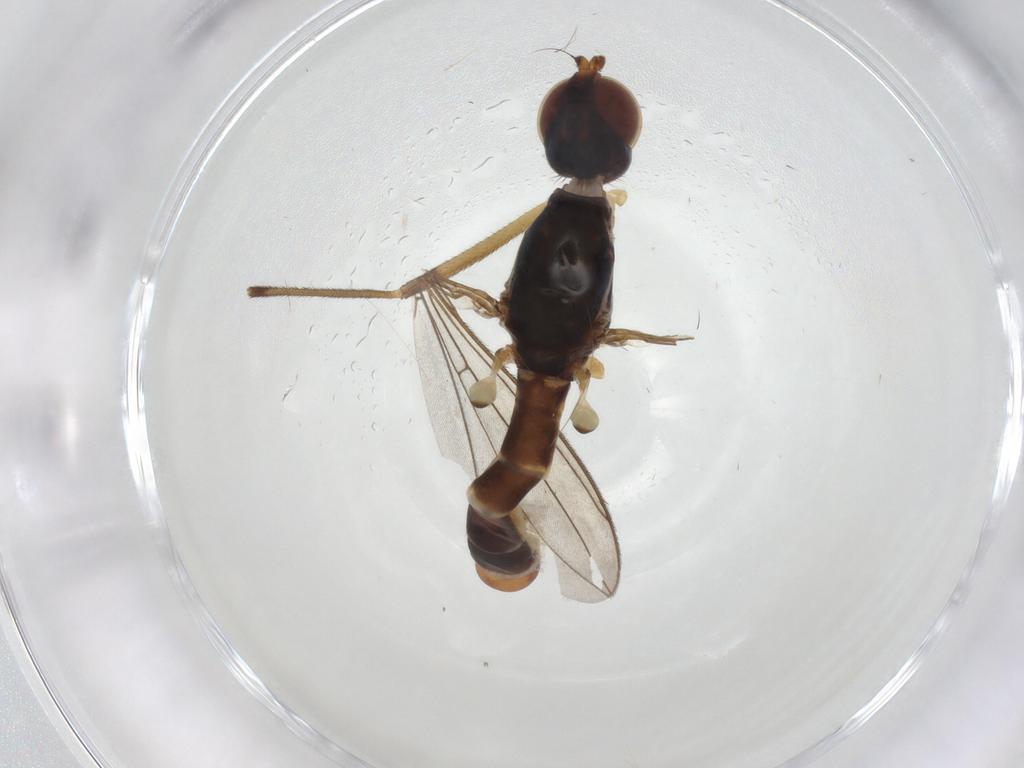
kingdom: Animalia
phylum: Arthropoda
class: Insecta
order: Diptera
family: Micropezidae
